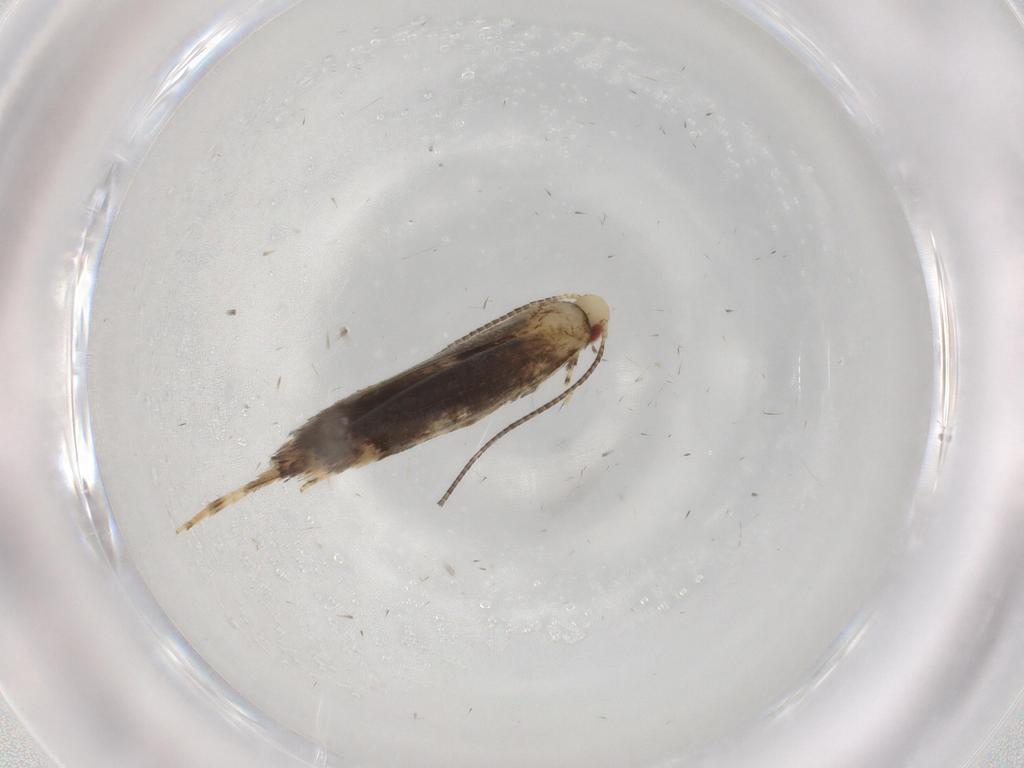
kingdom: Animalia
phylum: Arthropoda
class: Insecta
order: Lepidoptera
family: Gracillariidae
